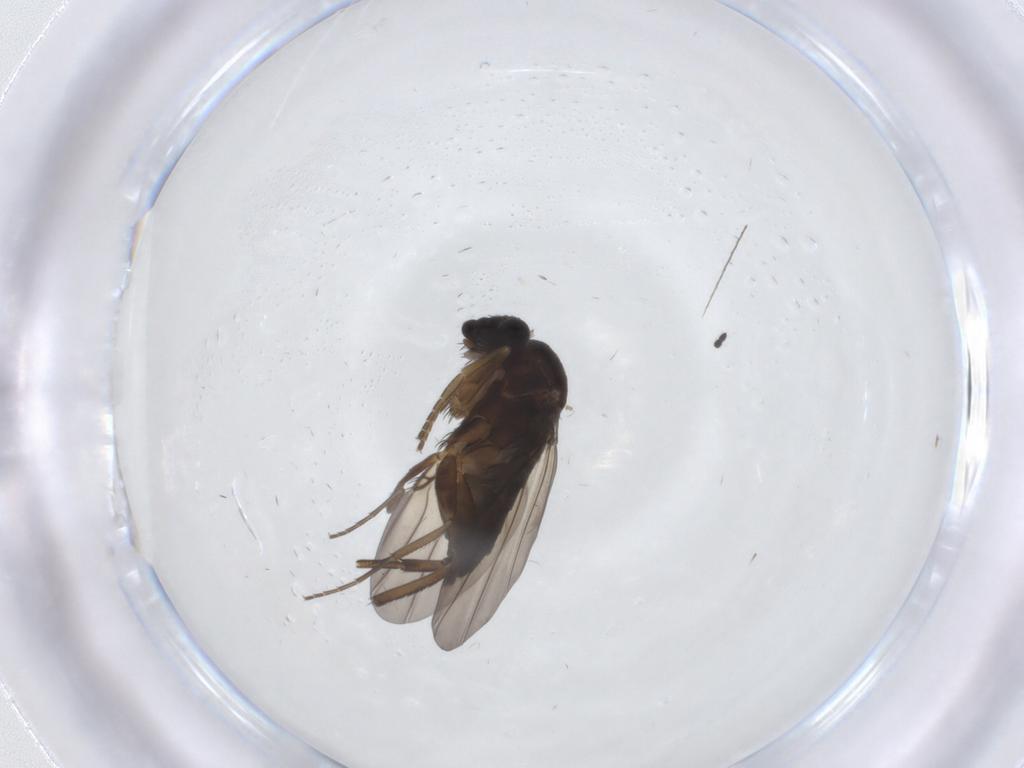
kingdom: Animalia
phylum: Arthropoda
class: Insecta
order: Diptera
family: Phoridae
